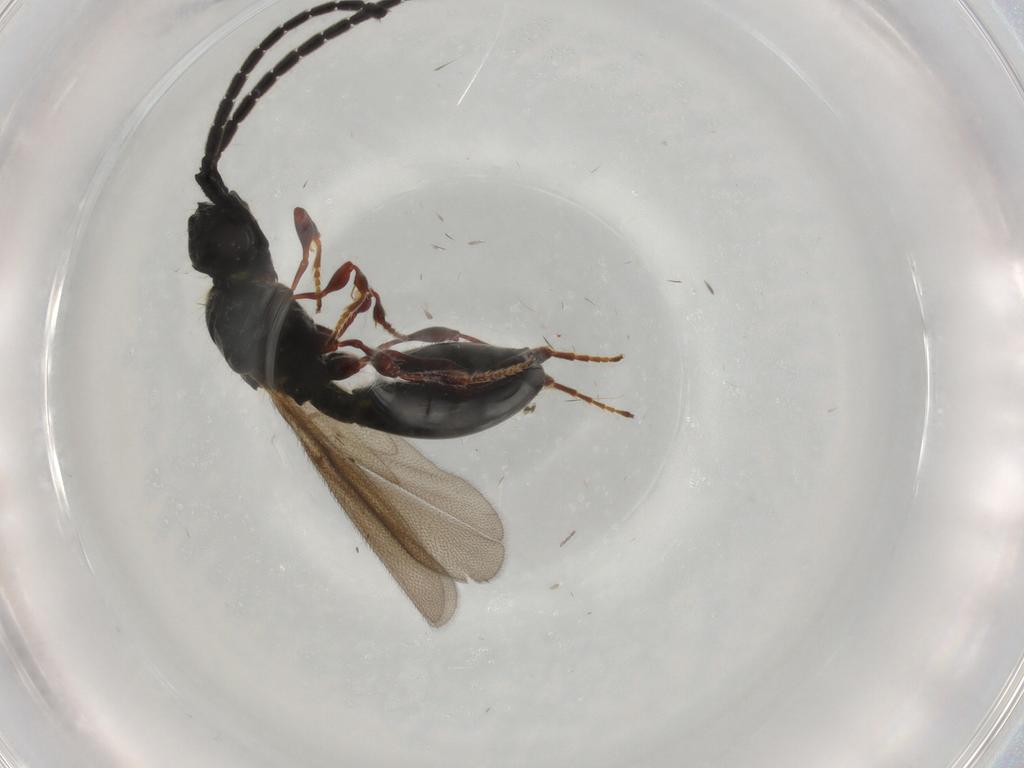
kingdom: Animalia
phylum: Arthropoda
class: Insecta
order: Hymenoptera
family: Diapriidae
